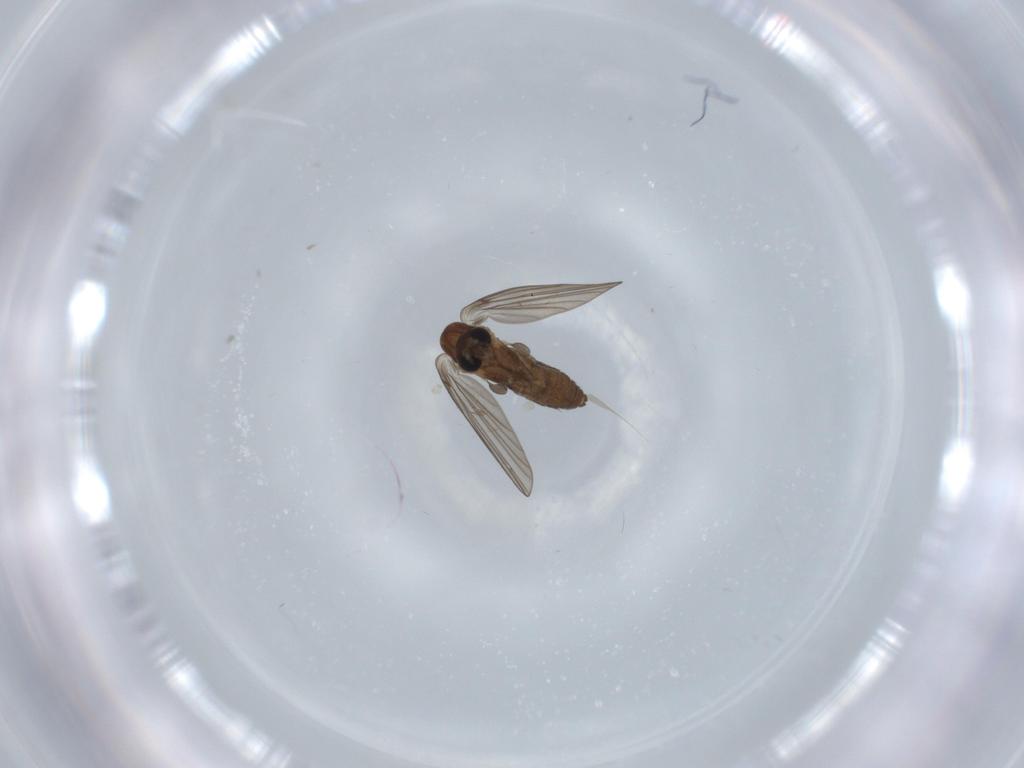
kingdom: Animalia
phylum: Arthropoda
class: Insecta
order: Diptera
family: Psychodidae
